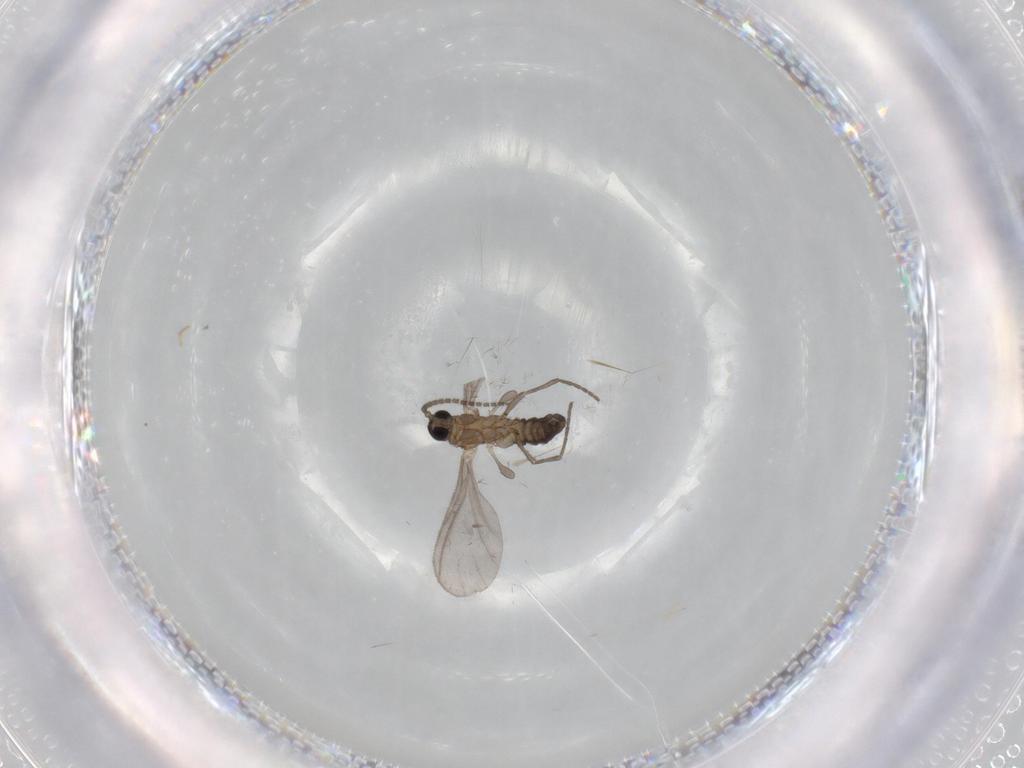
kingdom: Animalia
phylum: Arthropoda
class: Insecta
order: Diptera
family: Sciaridae
